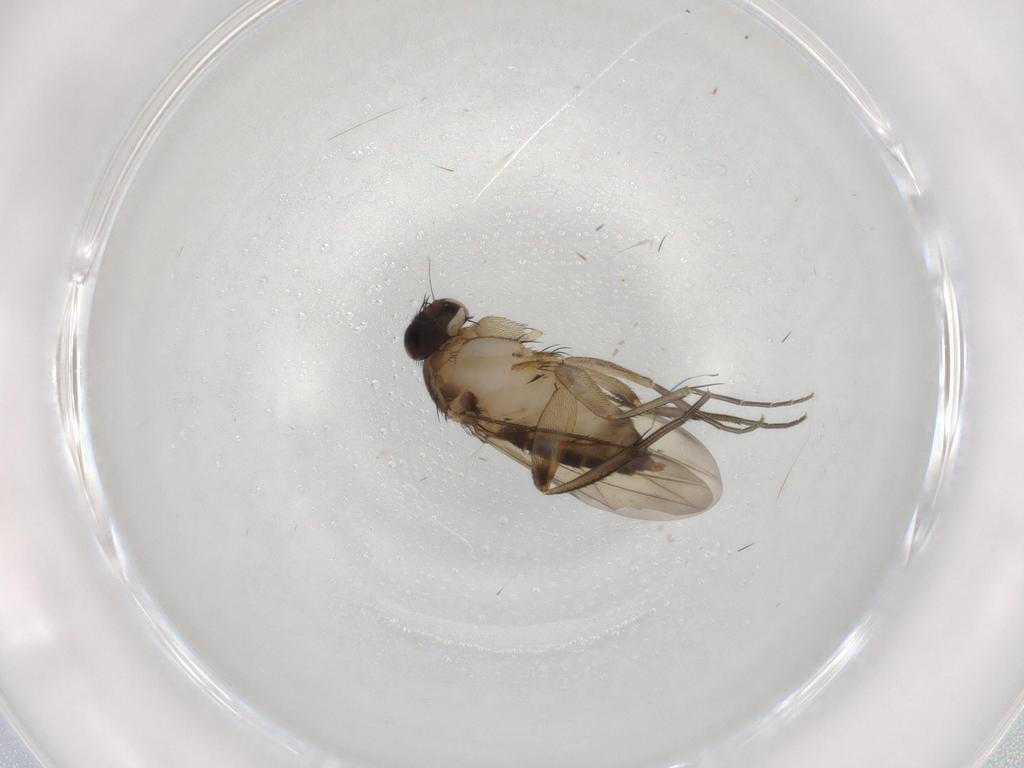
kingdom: Animalia
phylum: Arthropoda
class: Insecta
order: Diptera
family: Phoridae
